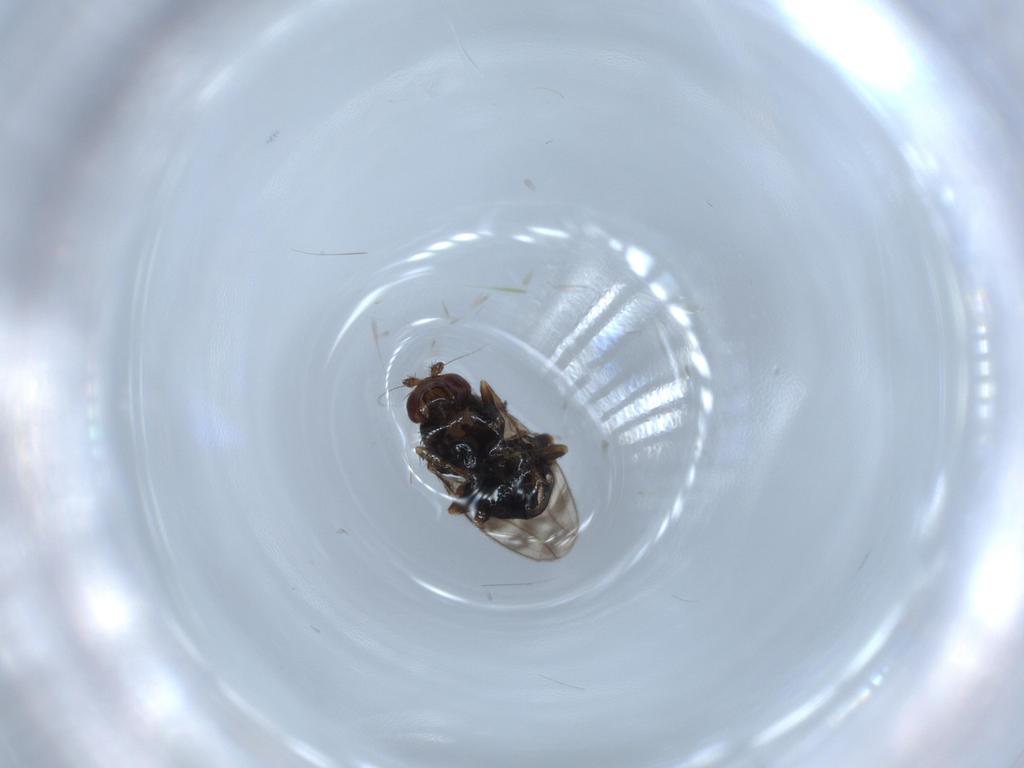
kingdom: Animalia
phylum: Arthropoda
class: Insecta
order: Diptera
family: Sphaeroceridae
